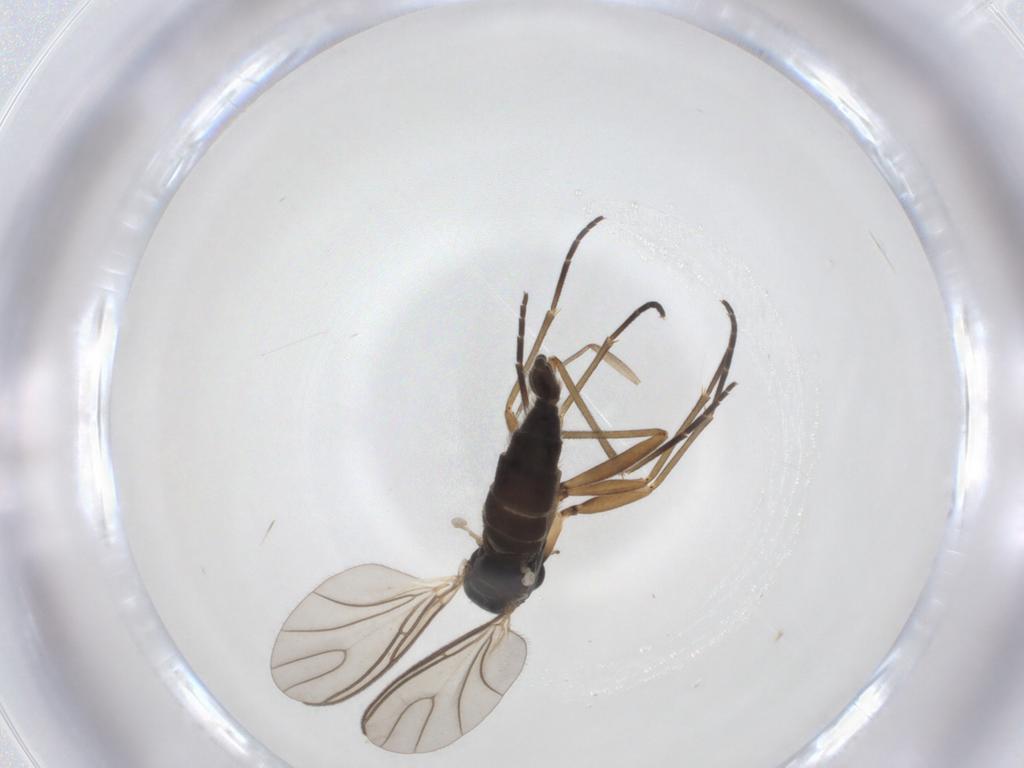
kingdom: Animalia
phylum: Arthropoda
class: Insecta
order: Diptera
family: Sciaridae
